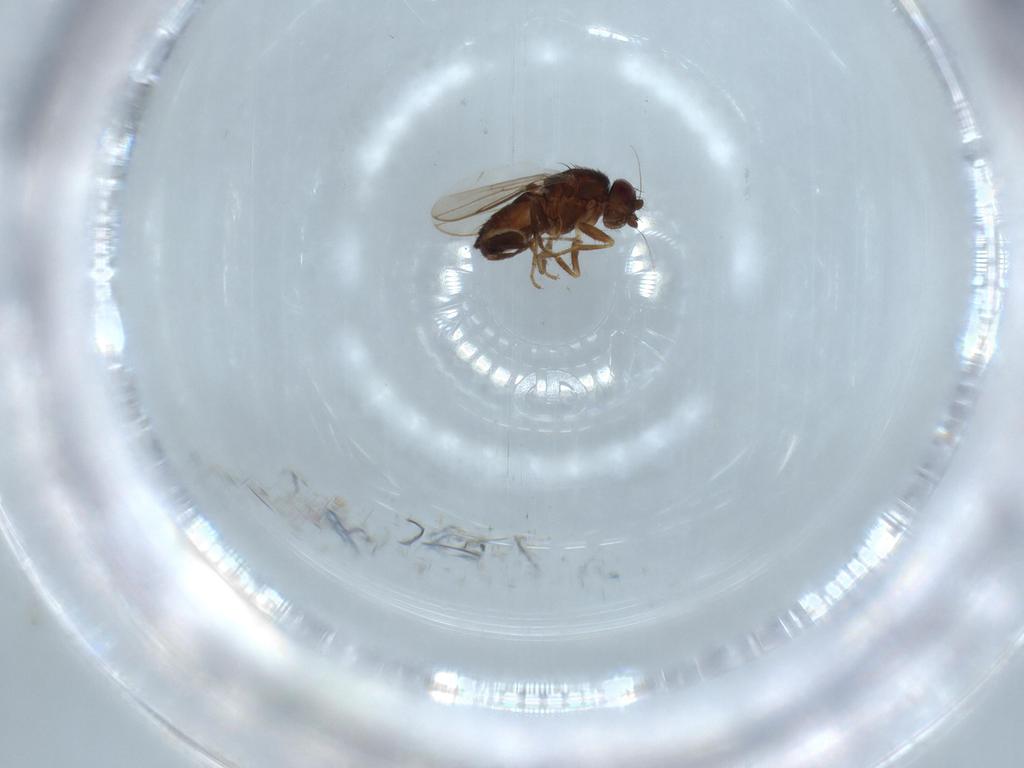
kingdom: Animalia
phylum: Arthropoda
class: Insecta
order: Diptera
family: Sphaeroceridae
